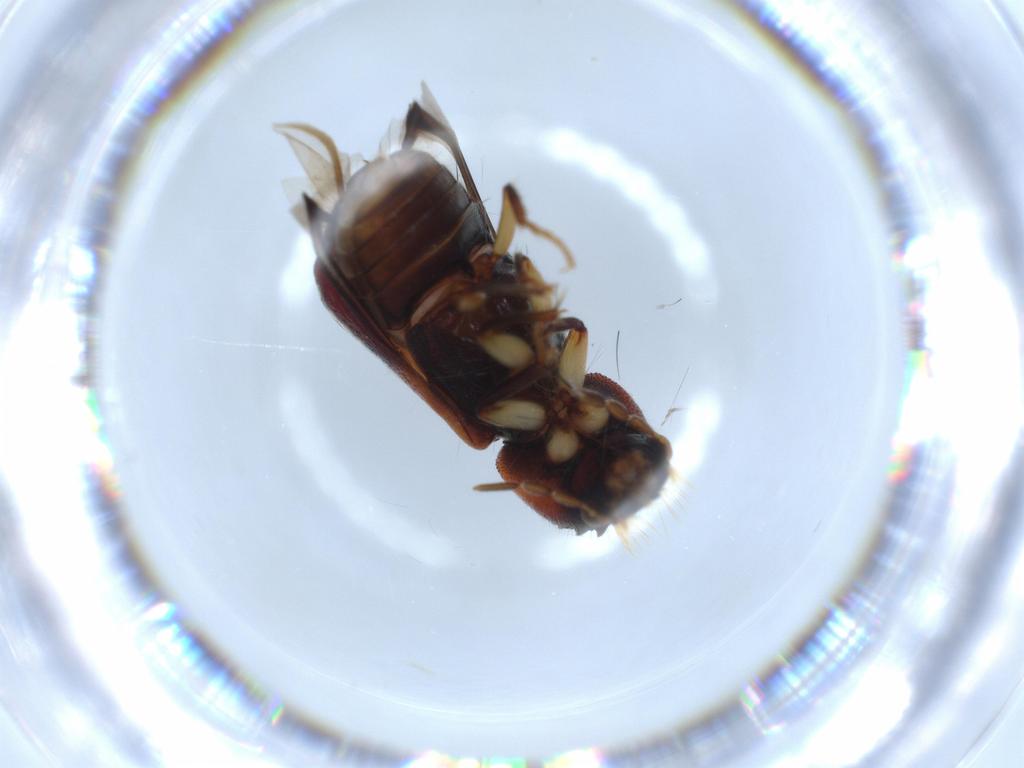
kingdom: Animalia
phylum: Arthropoda
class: Insecta
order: Coleoptera
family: Bostrichidae
